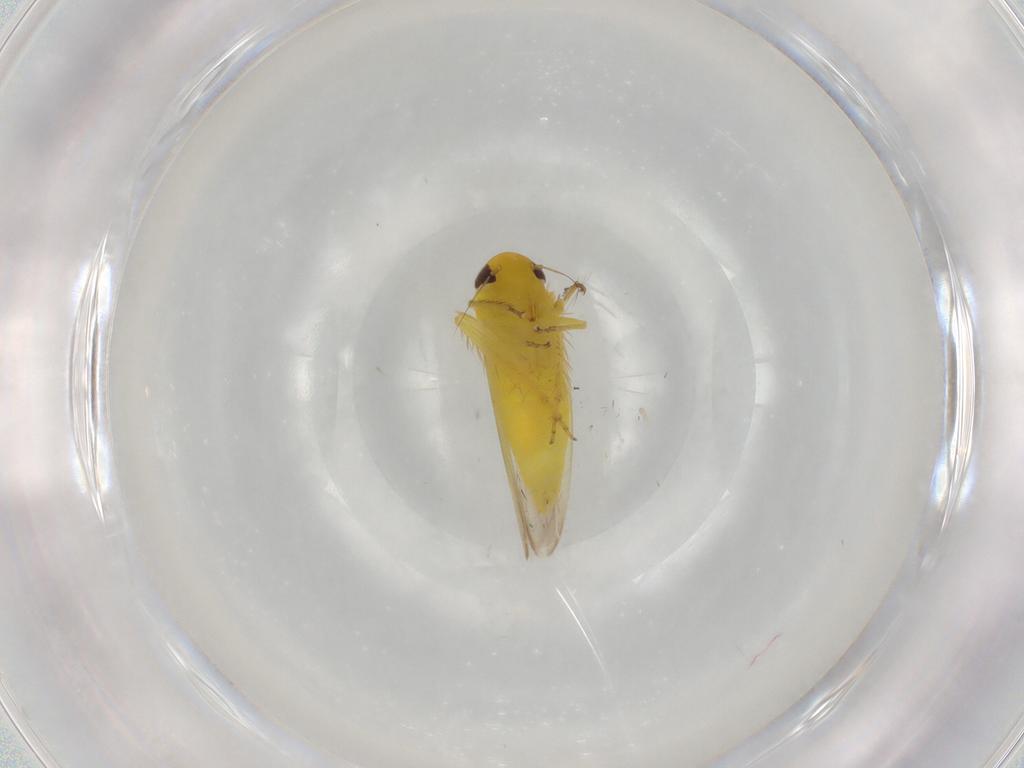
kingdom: Animalia
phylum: Arthropoda
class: Insecta
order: Hemiptera
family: Cicadellidae
